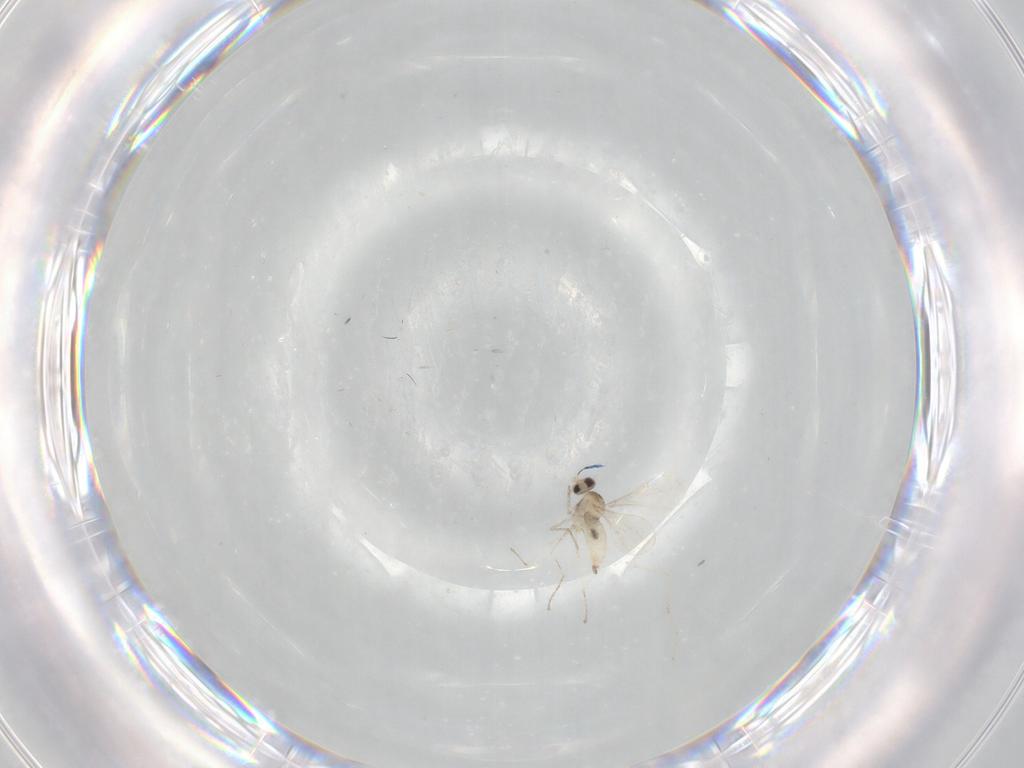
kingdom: Animalia
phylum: Arthropoda
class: Insecta
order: Diptera
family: Cecidomyiidae
